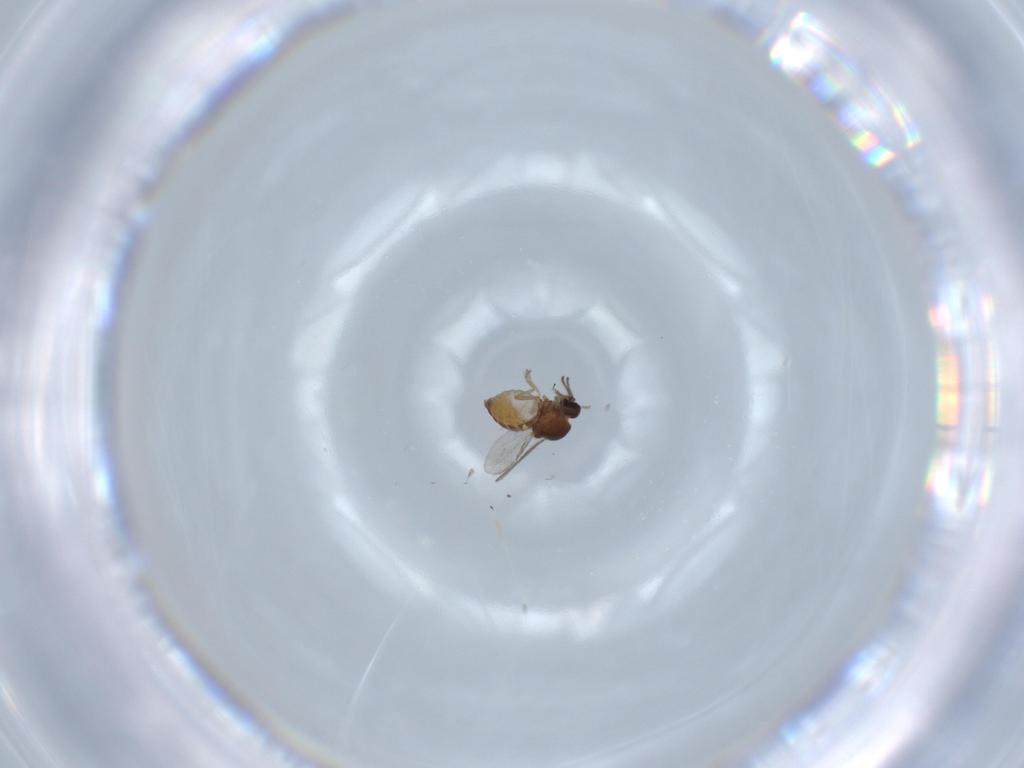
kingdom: Animalia
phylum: Arthropoda
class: Insecta
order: Diptera
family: Ceratopogonidae
